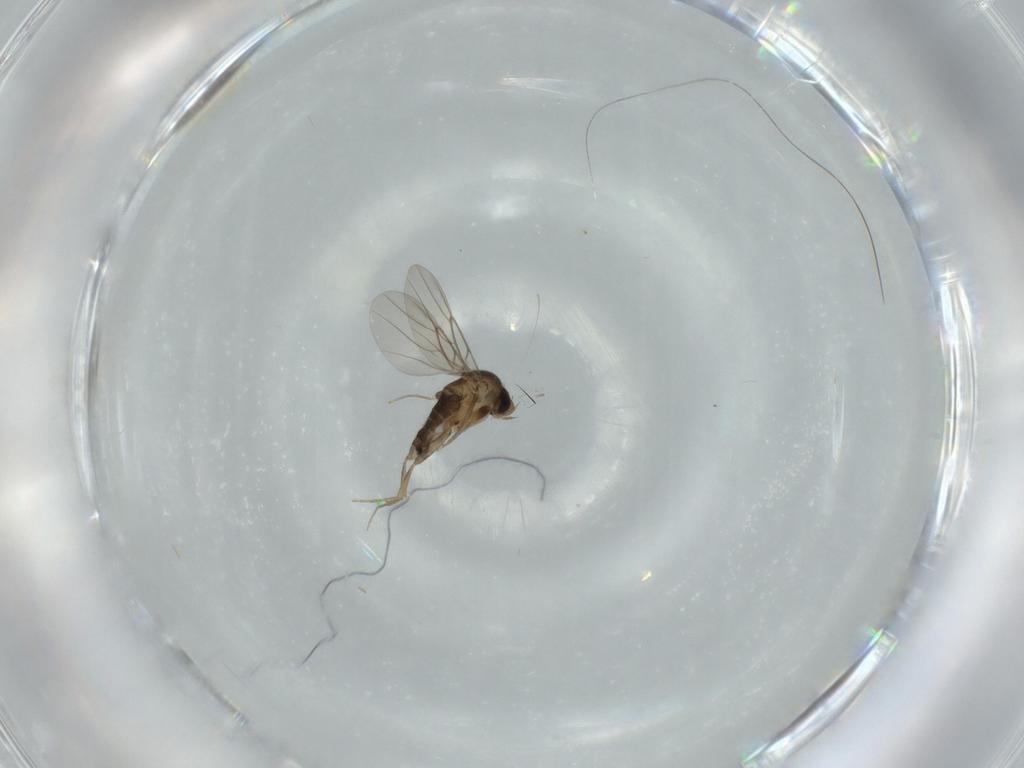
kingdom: Animalia
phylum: Arthropoda
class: Insecta
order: Diptera
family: Phoridae
